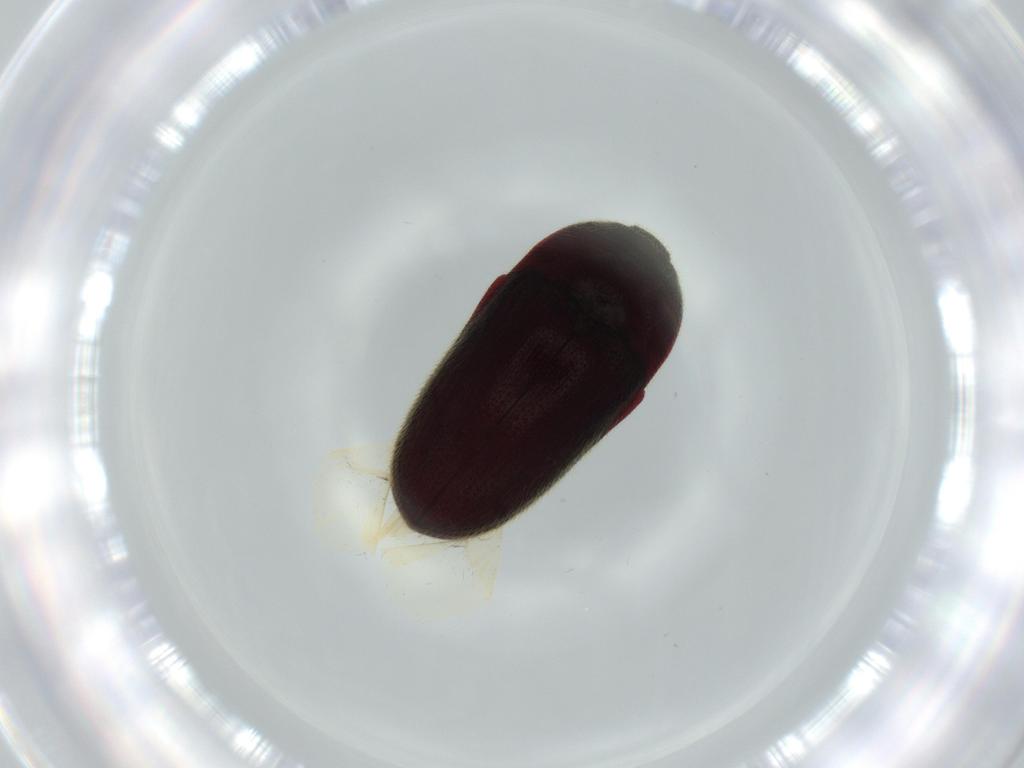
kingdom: Animalia
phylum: Arthropoda
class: Insecta
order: Coleoptera
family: Throscidae
